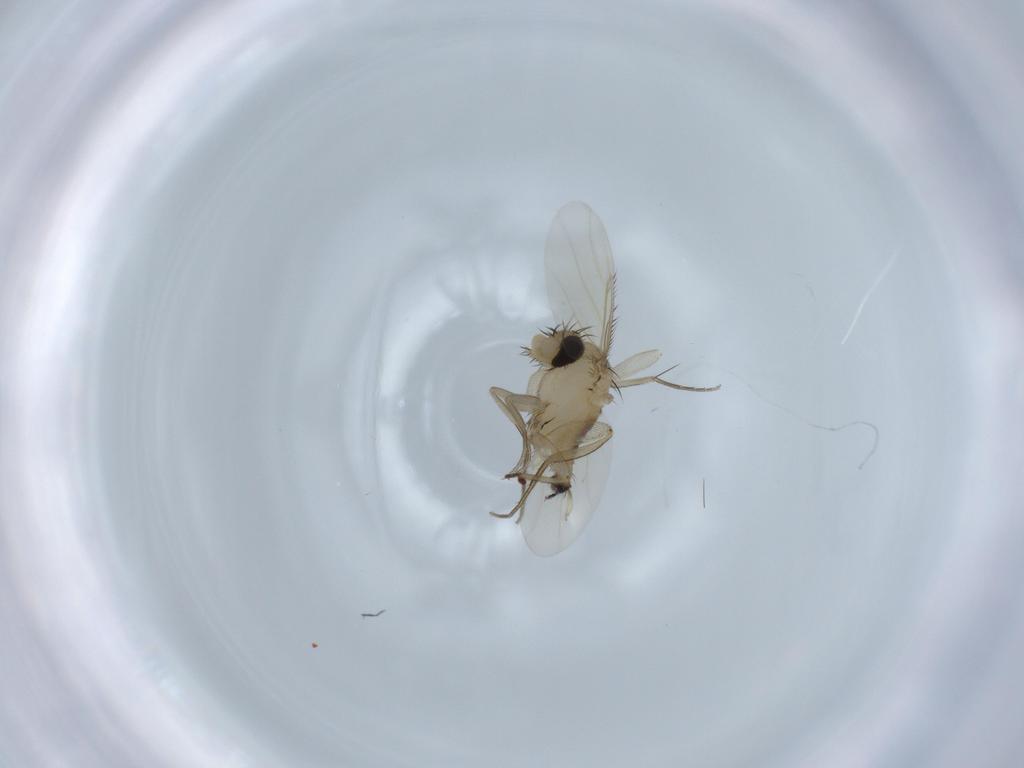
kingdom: Animalia
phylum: Arthropoda
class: Insecta
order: Diptera
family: Phoridae
